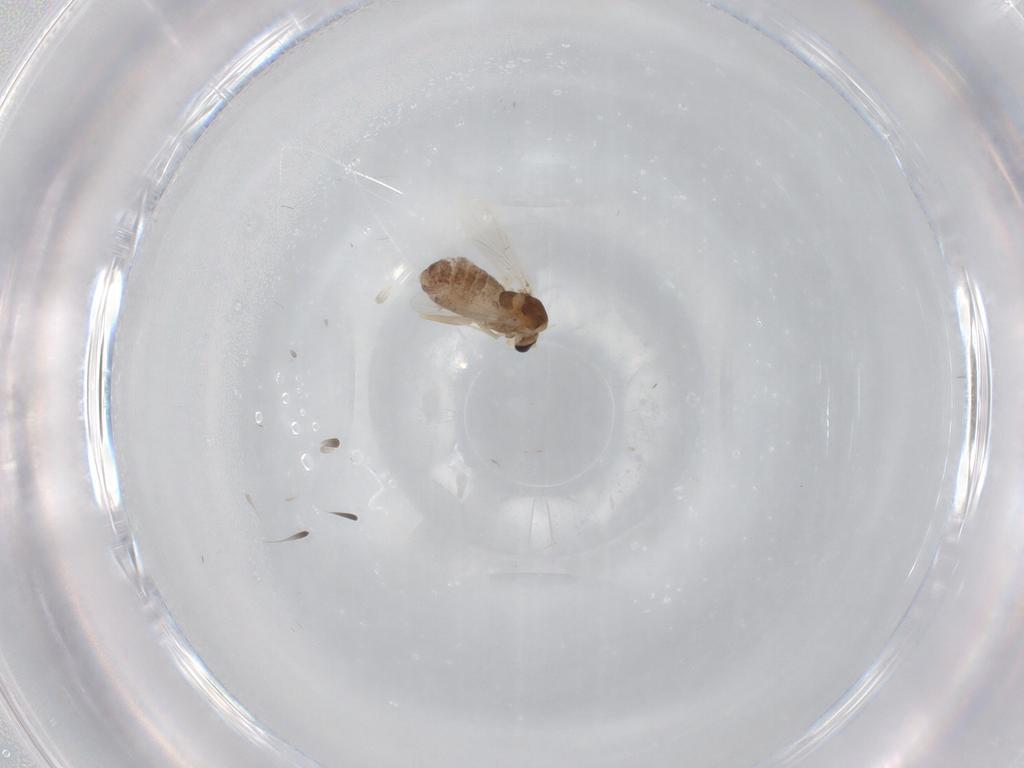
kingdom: Animalia
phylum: Arthropoda
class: Insecta
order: Diptera
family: Chironomidae
